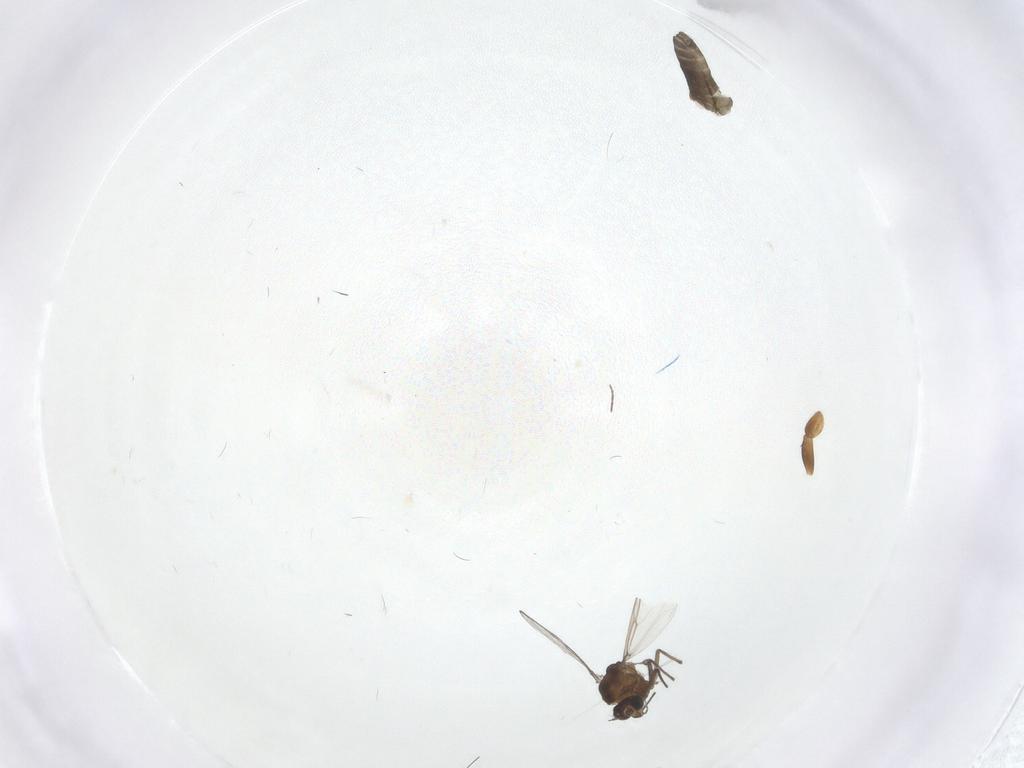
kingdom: Animalia
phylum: Arthropoda
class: Insecta
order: Diptera
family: Chironomidae
